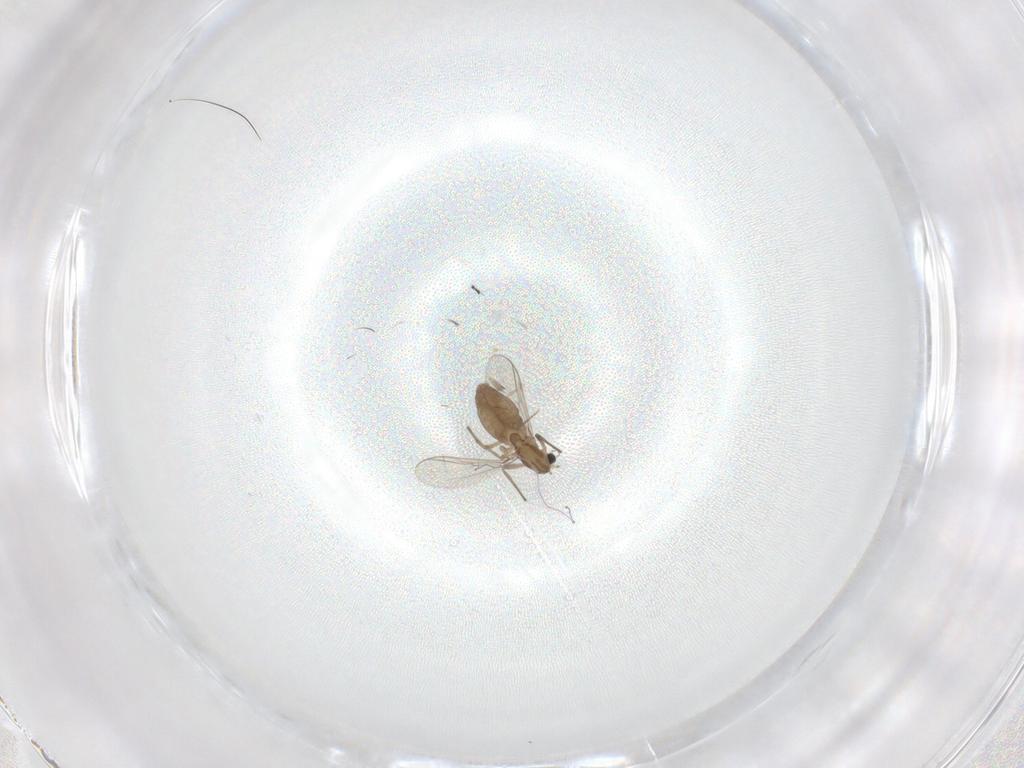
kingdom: Animalia
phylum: Arthropoda
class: Insecta
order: Diptera
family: Chironomidae
